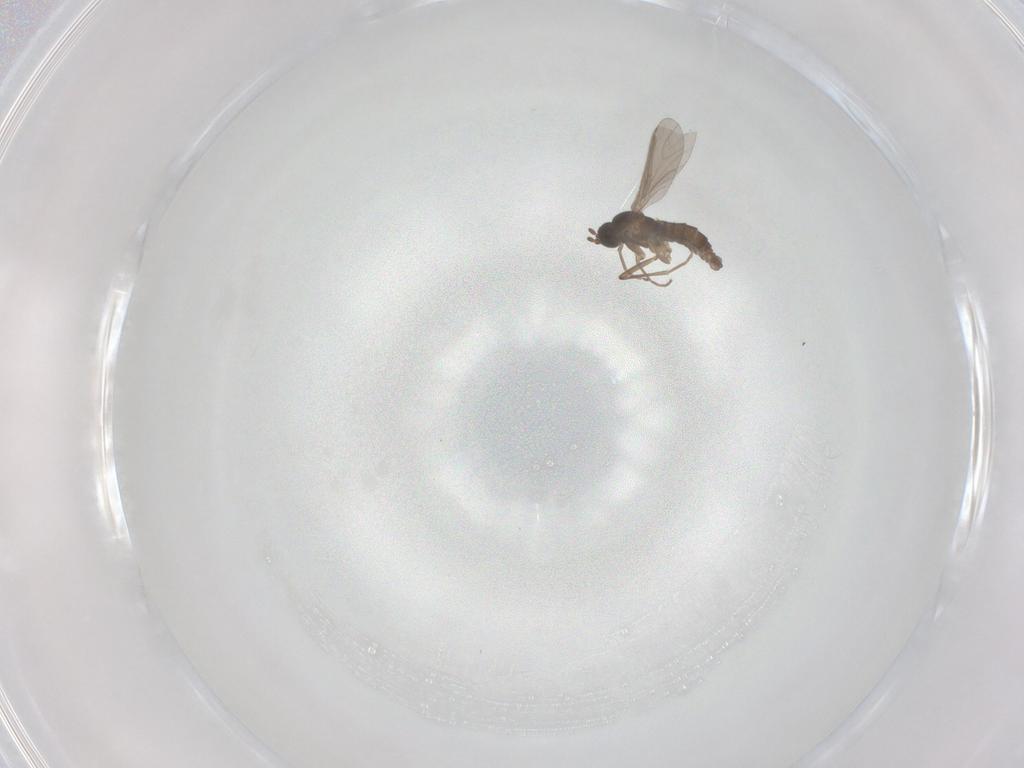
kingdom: Animalia
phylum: Arthropoda
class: Insecta
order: Diptera
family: Sciaridae
